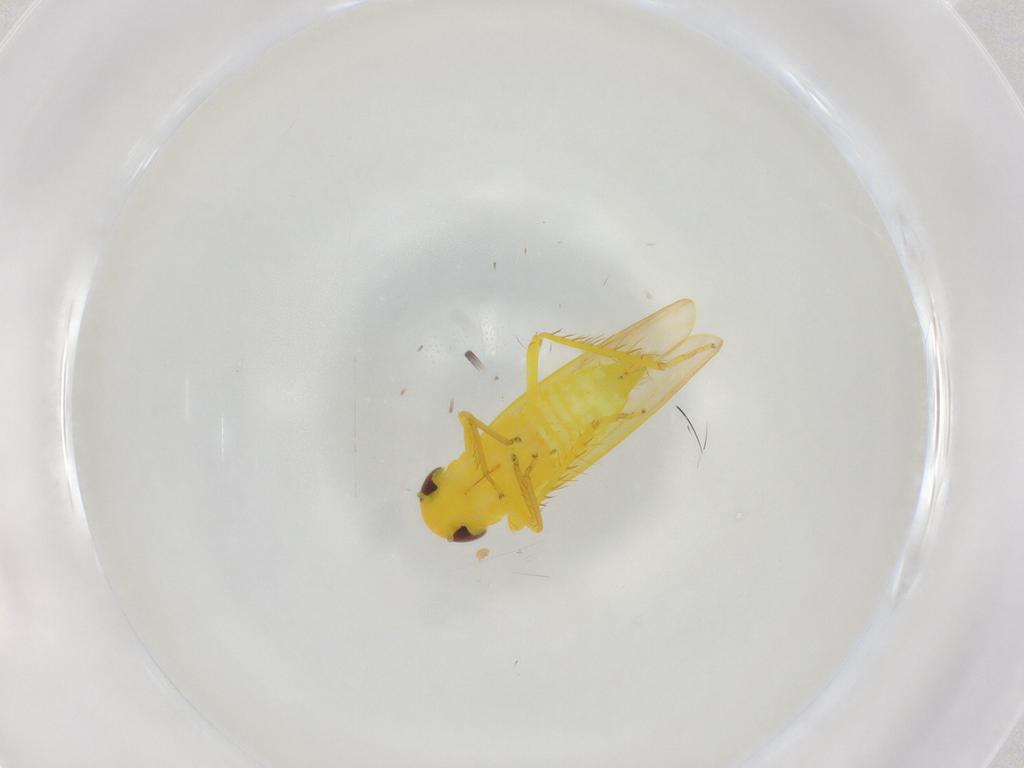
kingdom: Animalia
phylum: Arthropoda
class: Insecta
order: Hemiptera
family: Cicadellidae
